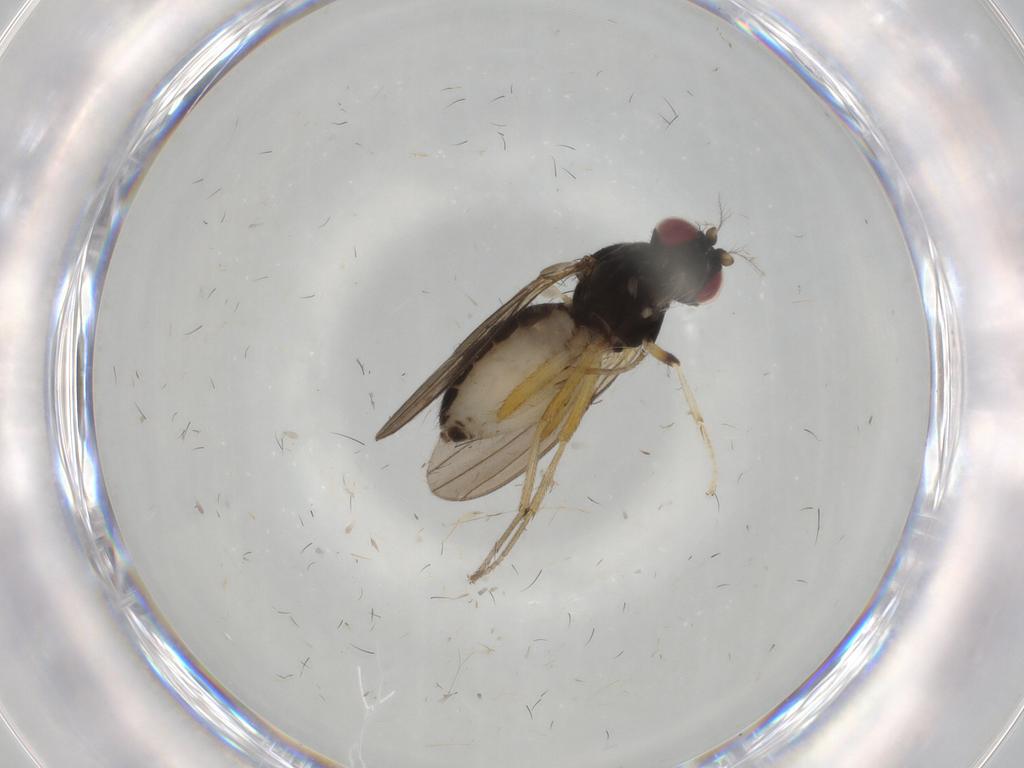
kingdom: Animalia
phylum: Arthropoda
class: Insecta
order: Diptera
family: Lauxaniidae
